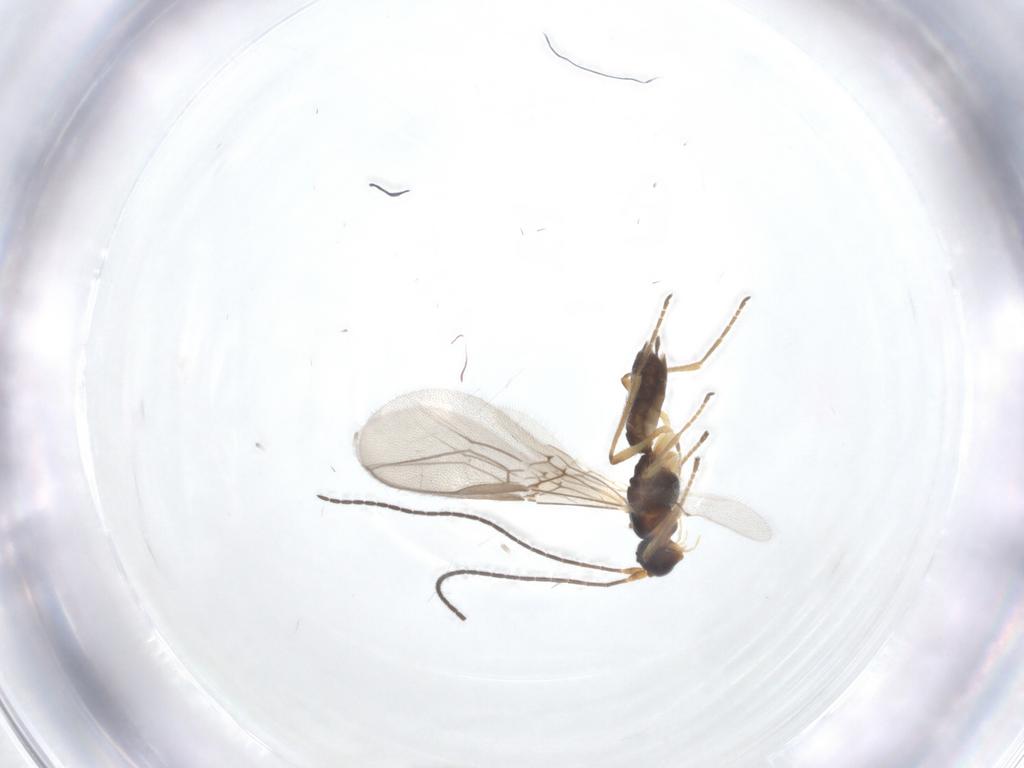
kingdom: Animalia
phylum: Arthropoda
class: Insecta
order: Hymenoptera
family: Braconidae
